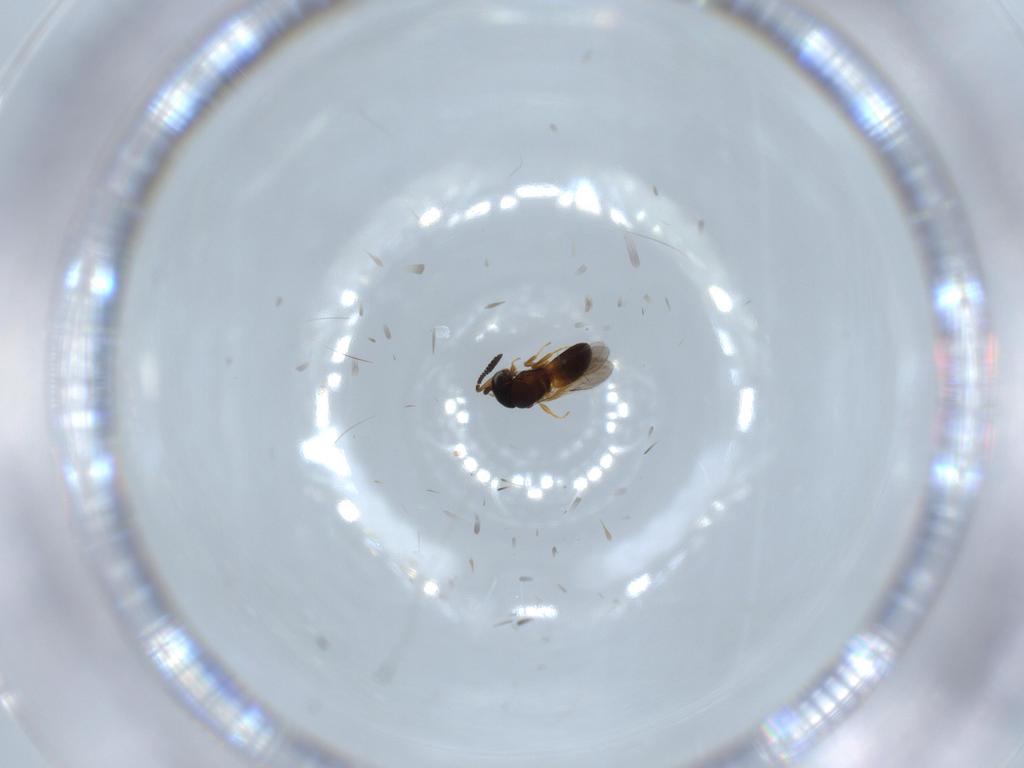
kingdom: Animalia
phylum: Arthropoda
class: Insecta
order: Hymenoptera
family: Scelionidae
